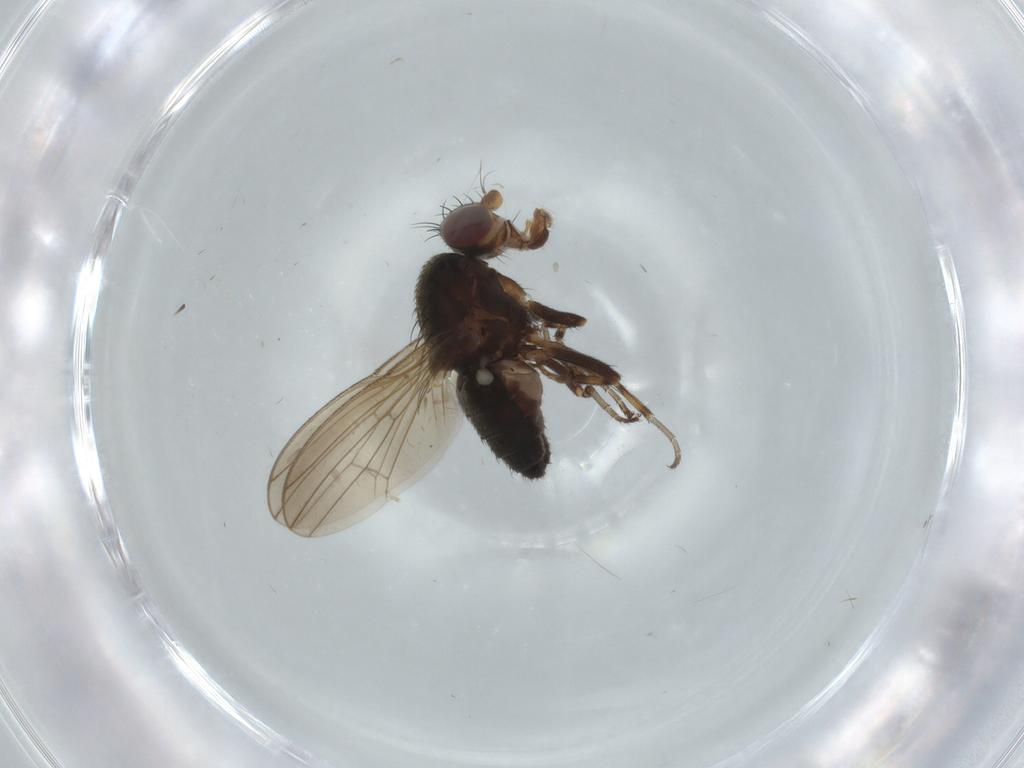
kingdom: Animalia
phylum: Arthropoda
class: Insecta
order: Diptera
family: Heleomyzidae
